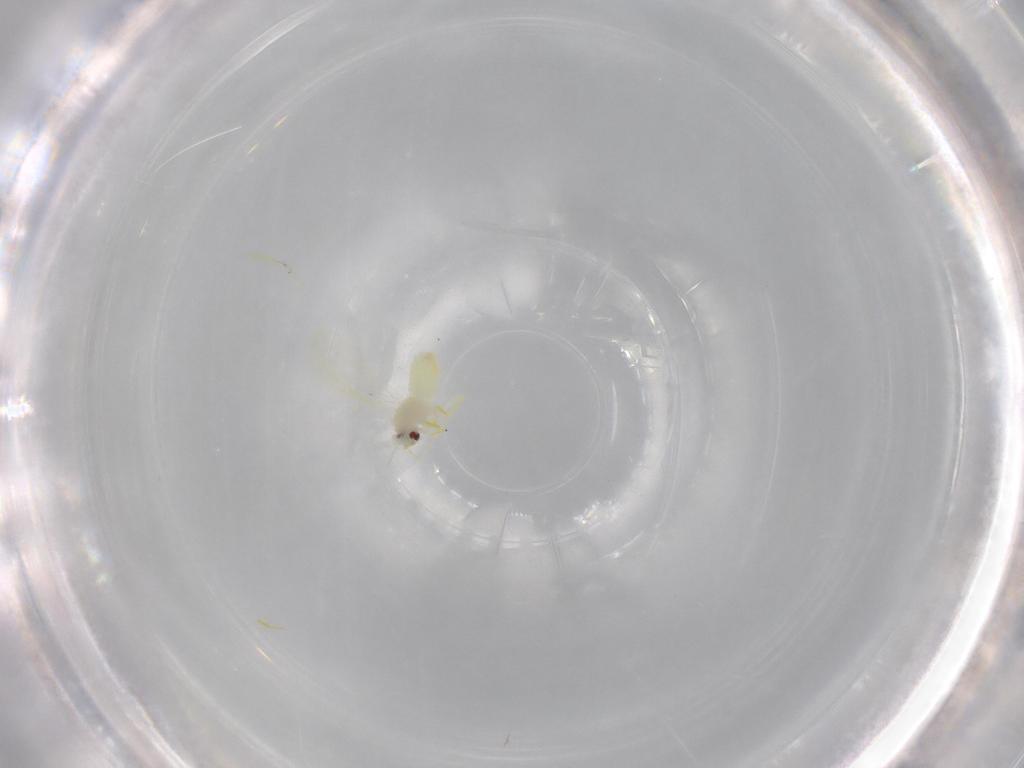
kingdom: Animalia
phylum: Arthropoda
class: Insecta
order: Hemiptera
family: Aleyrodidae
